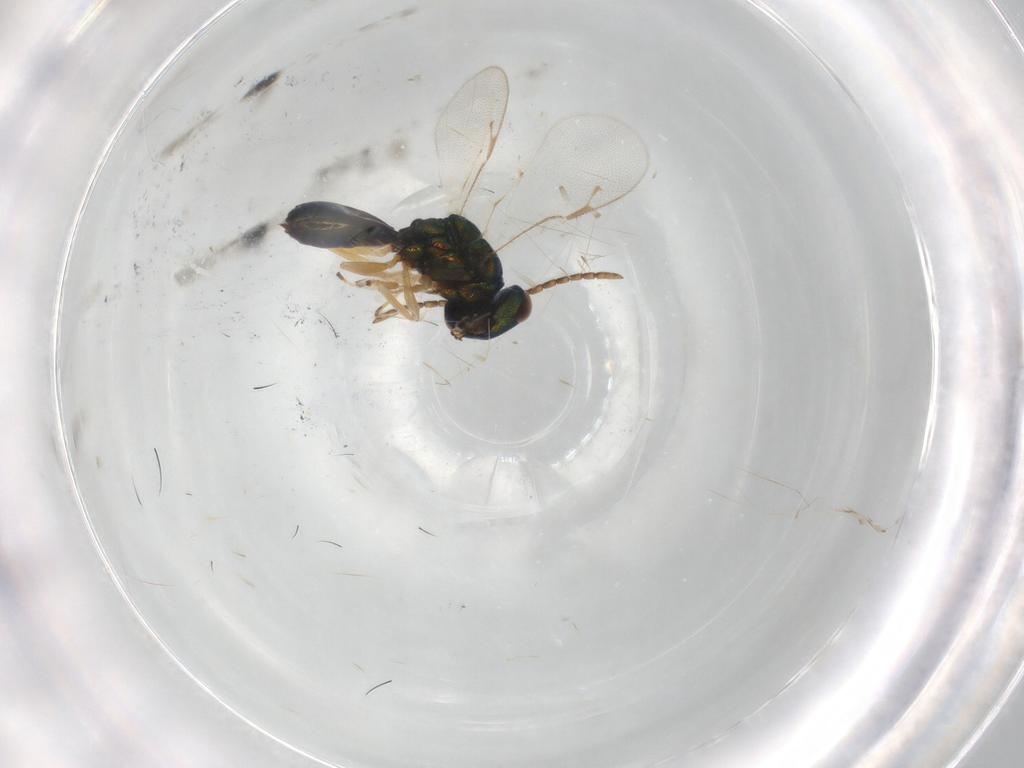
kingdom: Animalia
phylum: Arthropoda
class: Insecta
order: Hymenoptera
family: Pteromalidae
